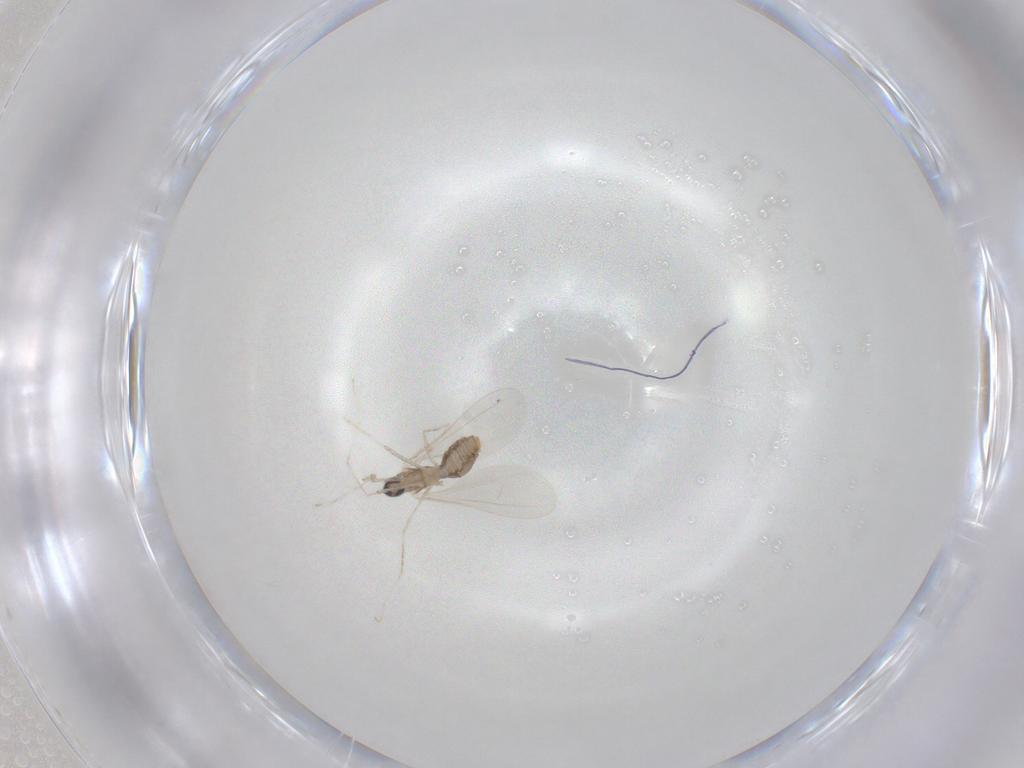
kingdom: Animalia
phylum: Arthropoda
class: Insecta
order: Diptera
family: Cecidomyiidae
